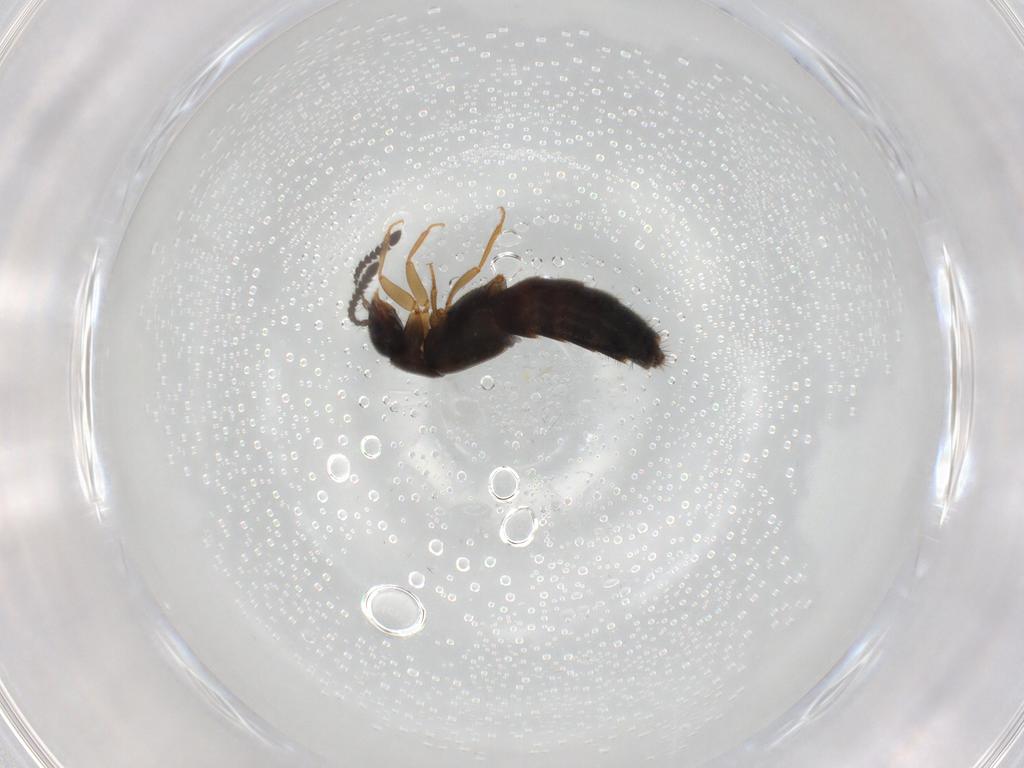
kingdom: Animalia
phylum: Arthropoda
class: Insecta
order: Coleoptera
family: Staphylinidae
